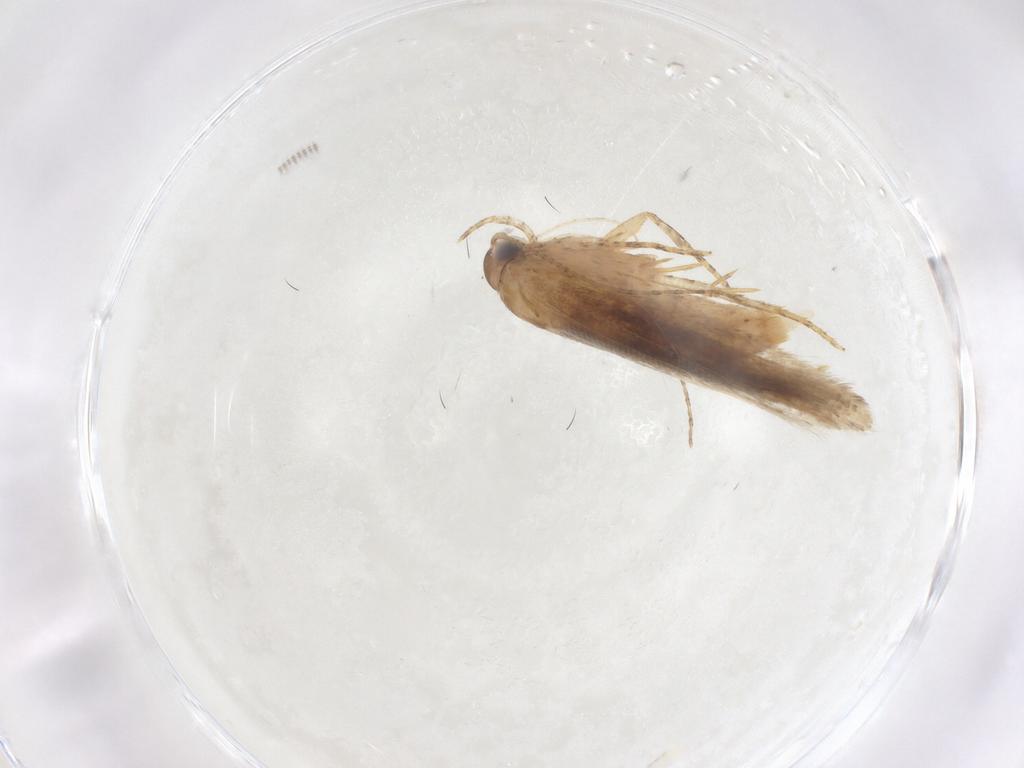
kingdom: Animalia
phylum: Arthropoda
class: Insecta
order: Lepidoptera
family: Gelechiidae
